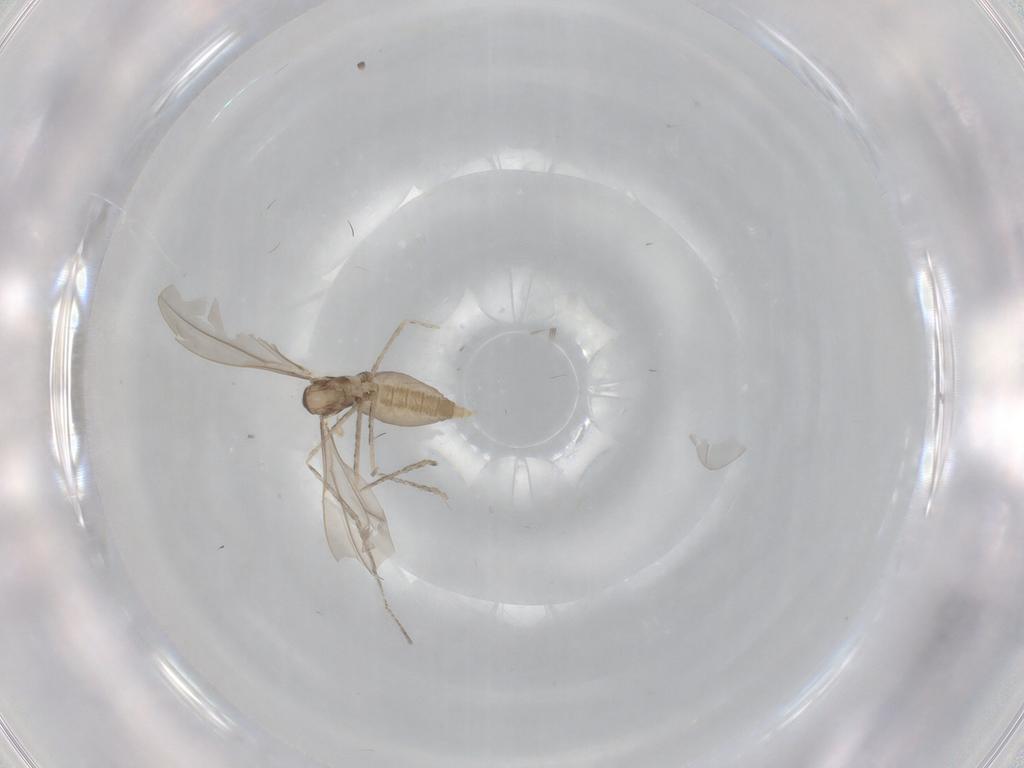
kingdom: Animalia
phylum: Arthropoda
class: Insecta
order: Diptera
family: Cecidomyiidae
